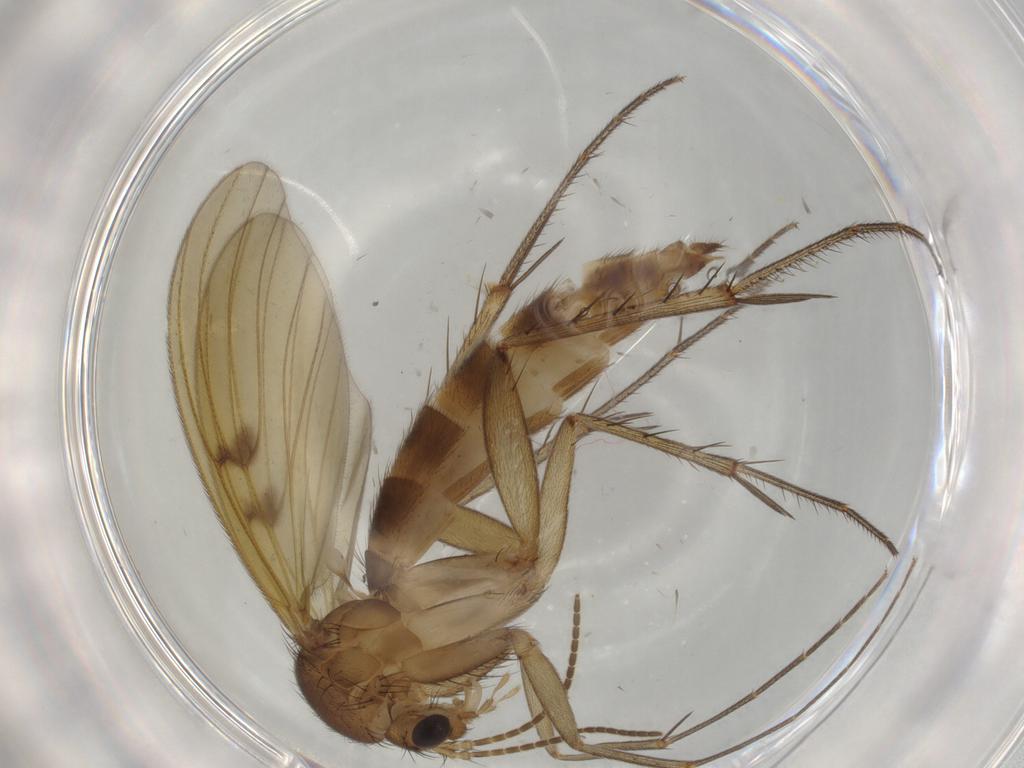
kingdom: Animalia
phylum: Arthropoda
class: Insecta
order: Diptera
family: Mycetophilidae
